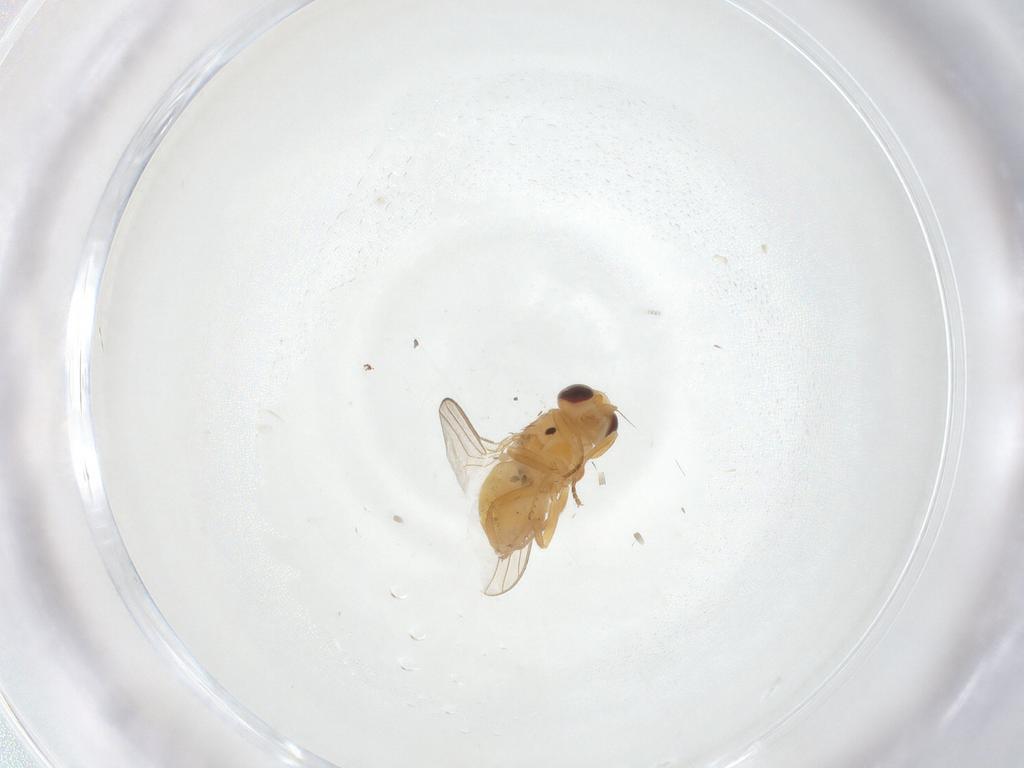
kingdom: Animalia
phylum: Arthropoda
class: Insecta
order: Diptera
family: Chloropidae
